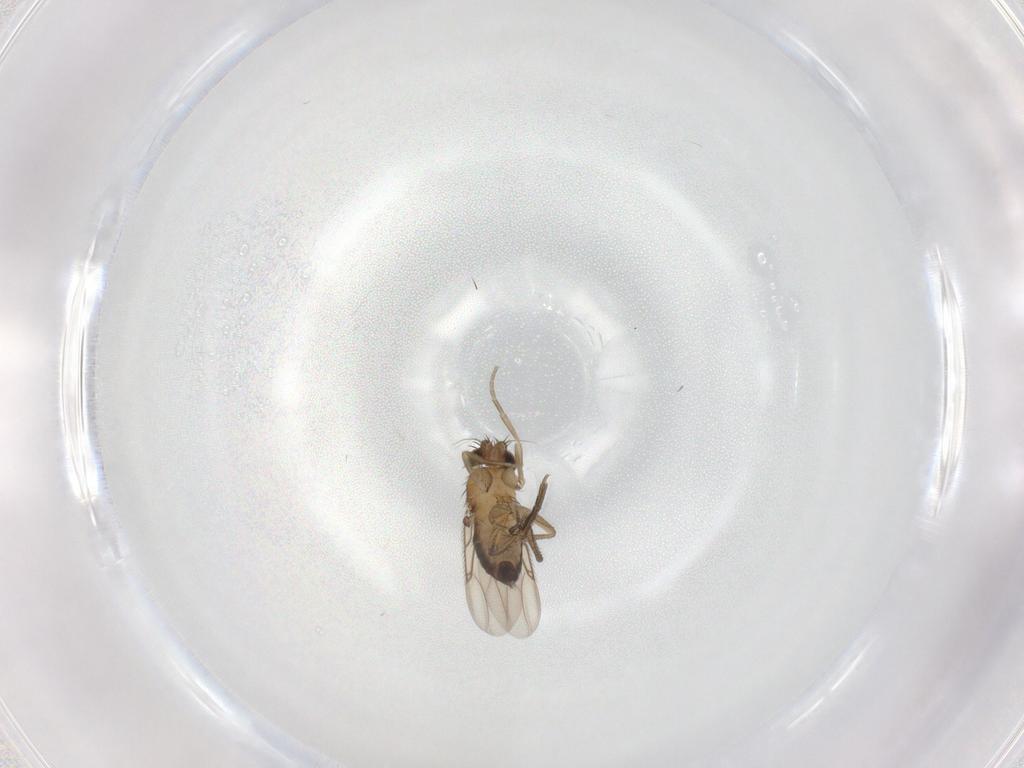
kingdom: Animalia
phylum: Arthropoda
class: Insecta
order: Diptera
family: Phoridae
